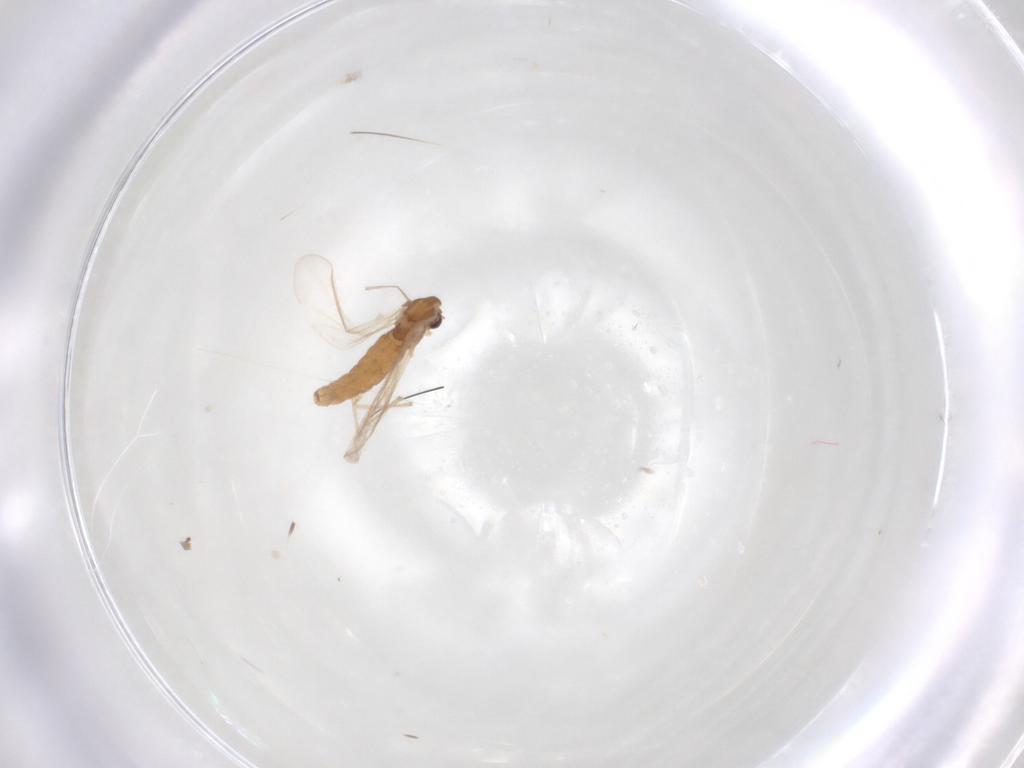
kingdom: Animalia
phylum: Arthropoda
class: Insecta
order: Diptera
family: Chironomidae
